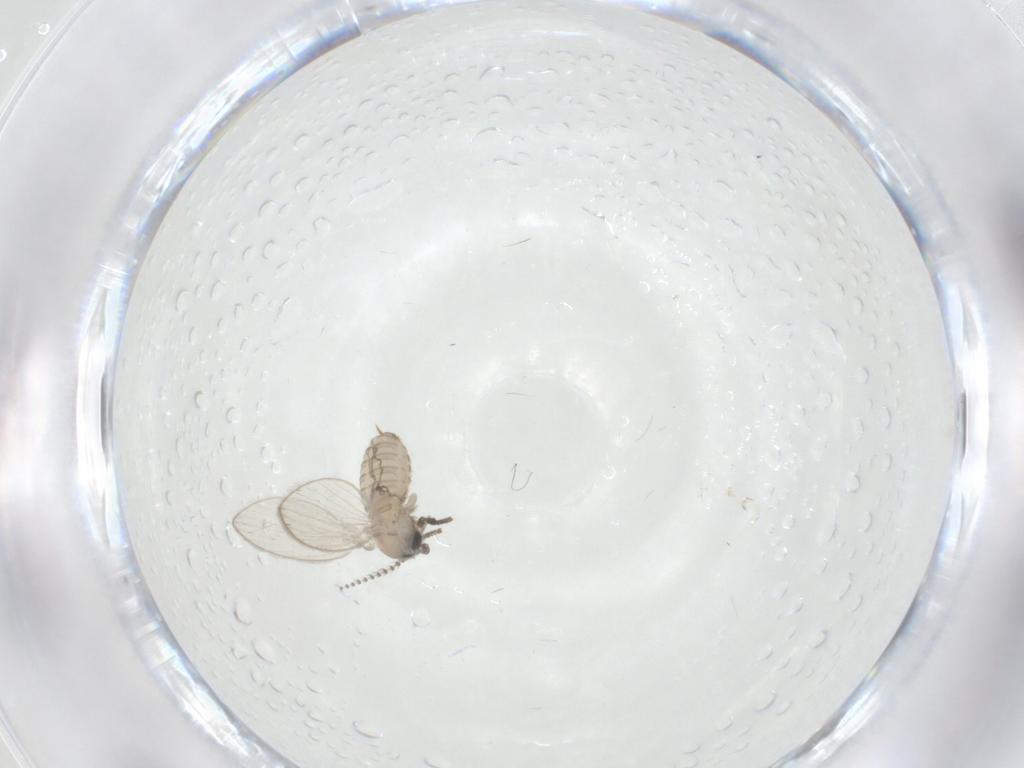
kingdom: Animalia
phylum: Arthropoda
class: Insecta
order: Diptera
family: Psychodidae
